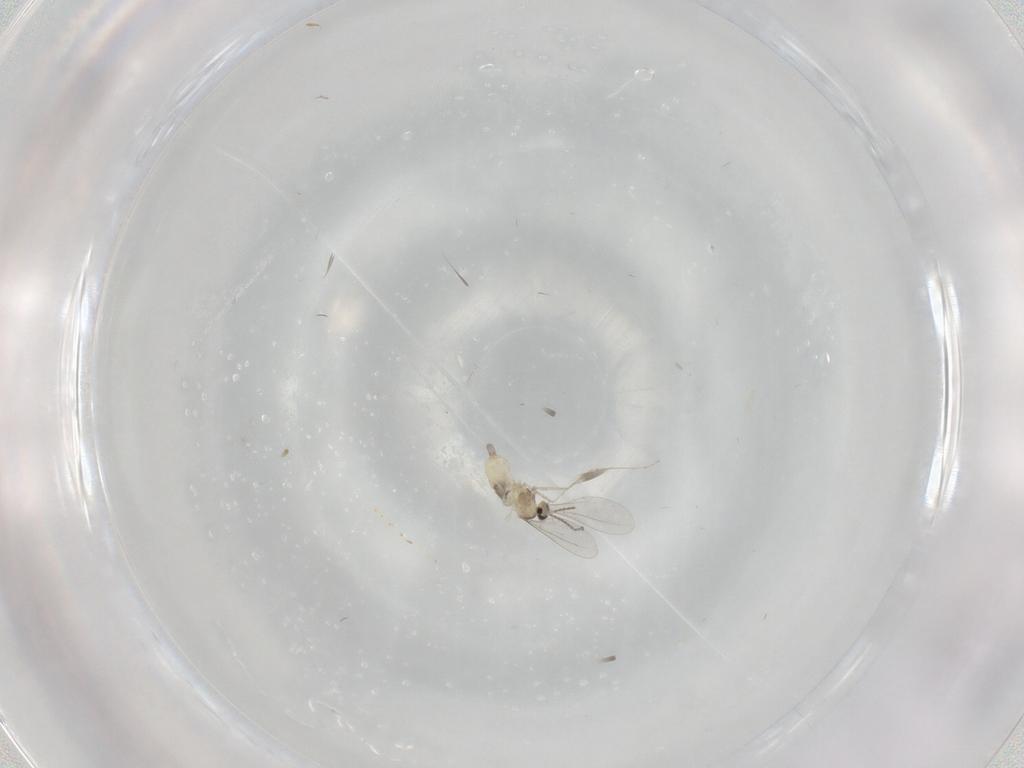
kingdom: Animalia
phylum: Arthropoda
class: Insecta
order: Diptera
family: Cecidomyiidae
